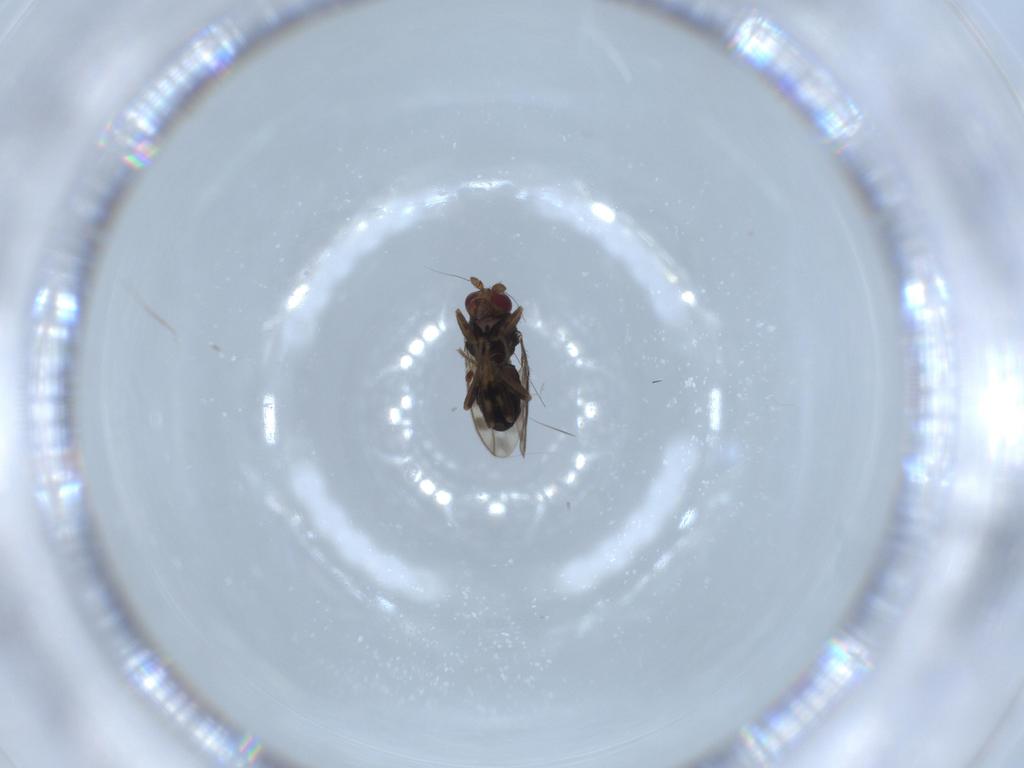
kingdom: Animalia
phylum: Arthropoda
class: Insecta
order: Diptera
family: Sphaeroceridae
